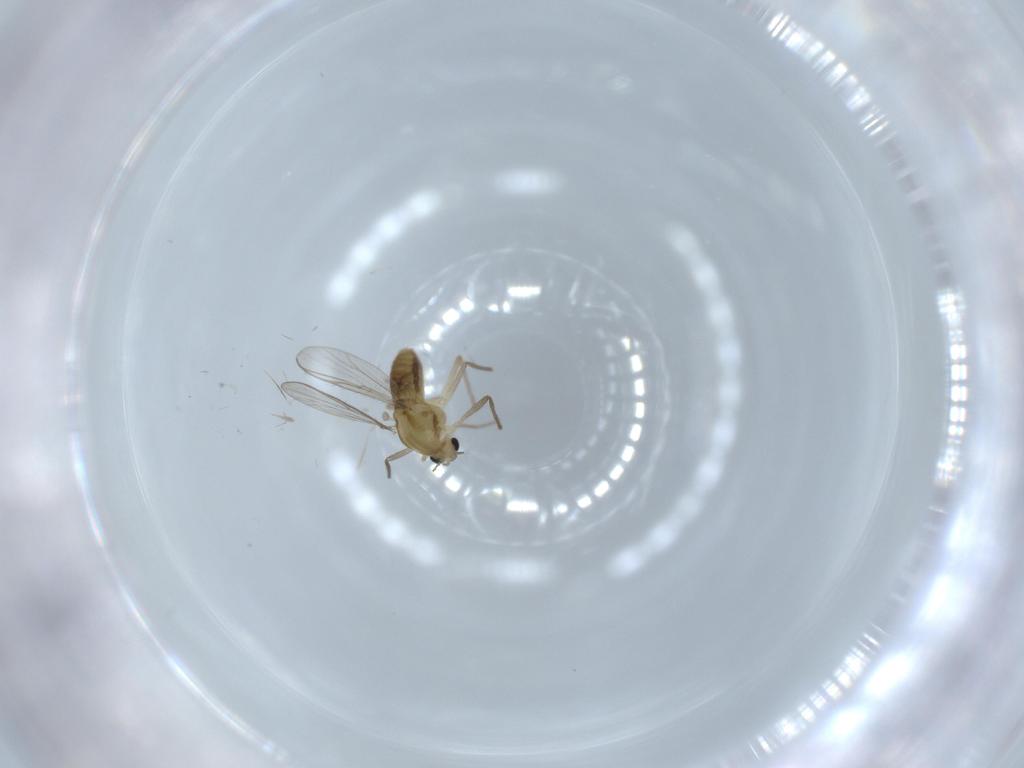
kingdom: Animalia
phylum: Arthropoda
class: Insecta
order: Diptera
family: Chironomidae
